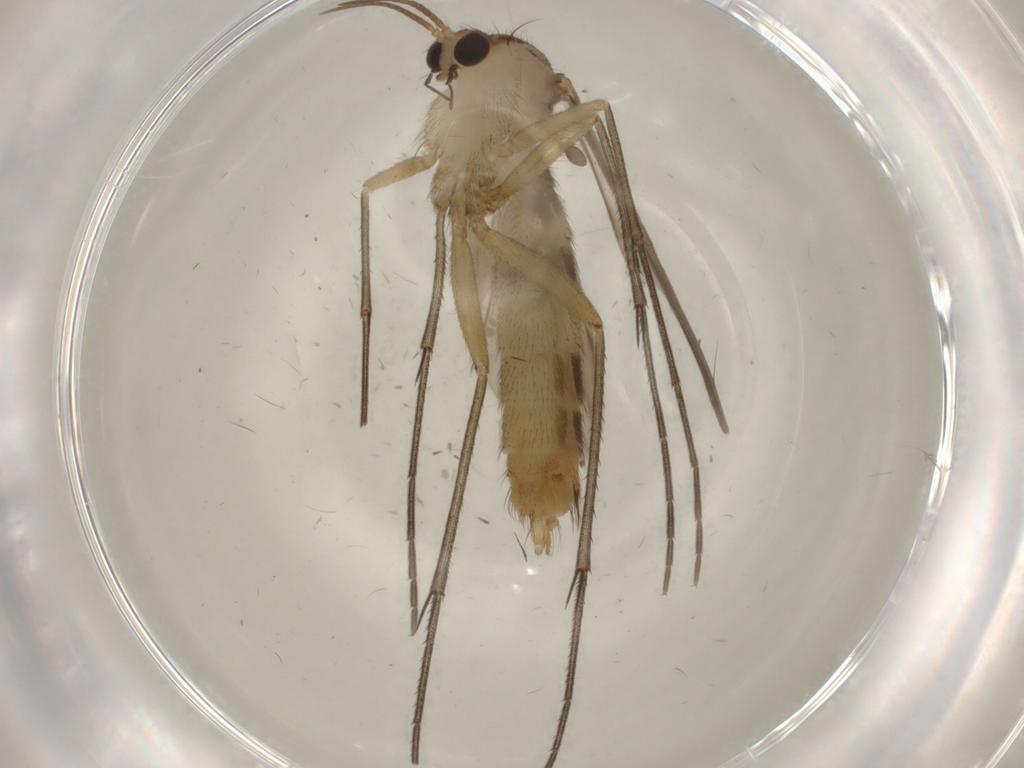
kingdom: Animalia
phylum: Arthropoda
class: Insecta
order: Diptera
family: Mycetophilidae
